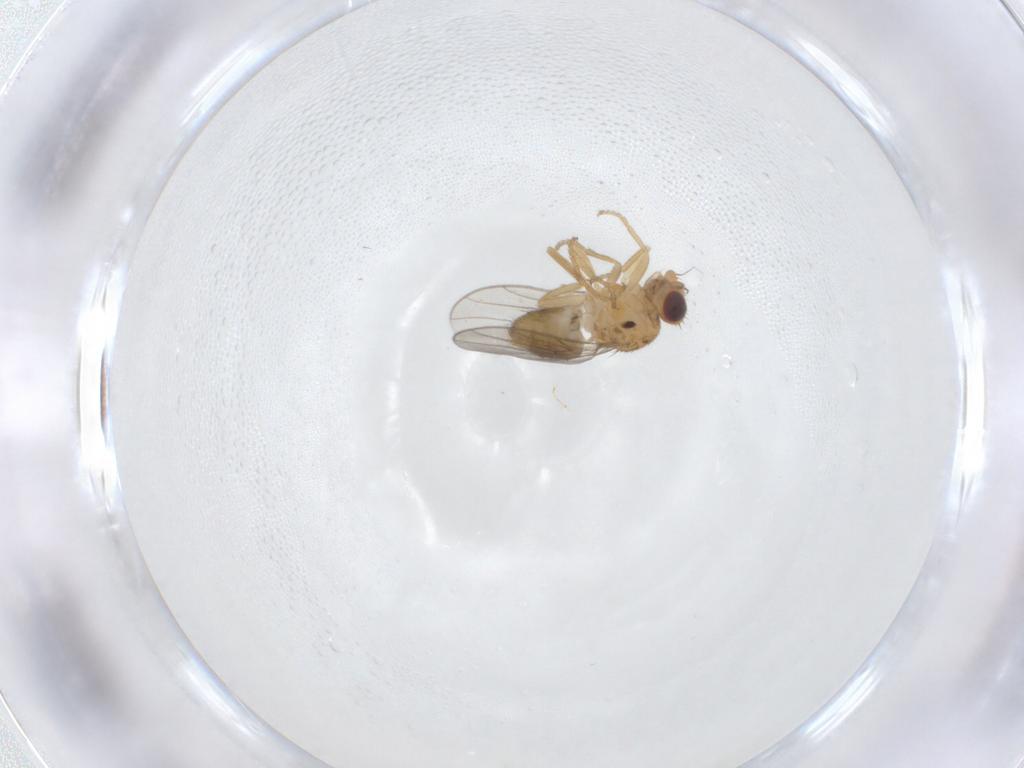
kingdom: Animalia
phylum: Arthropoda
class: Insecta
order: Diptera
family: Chloropidae
